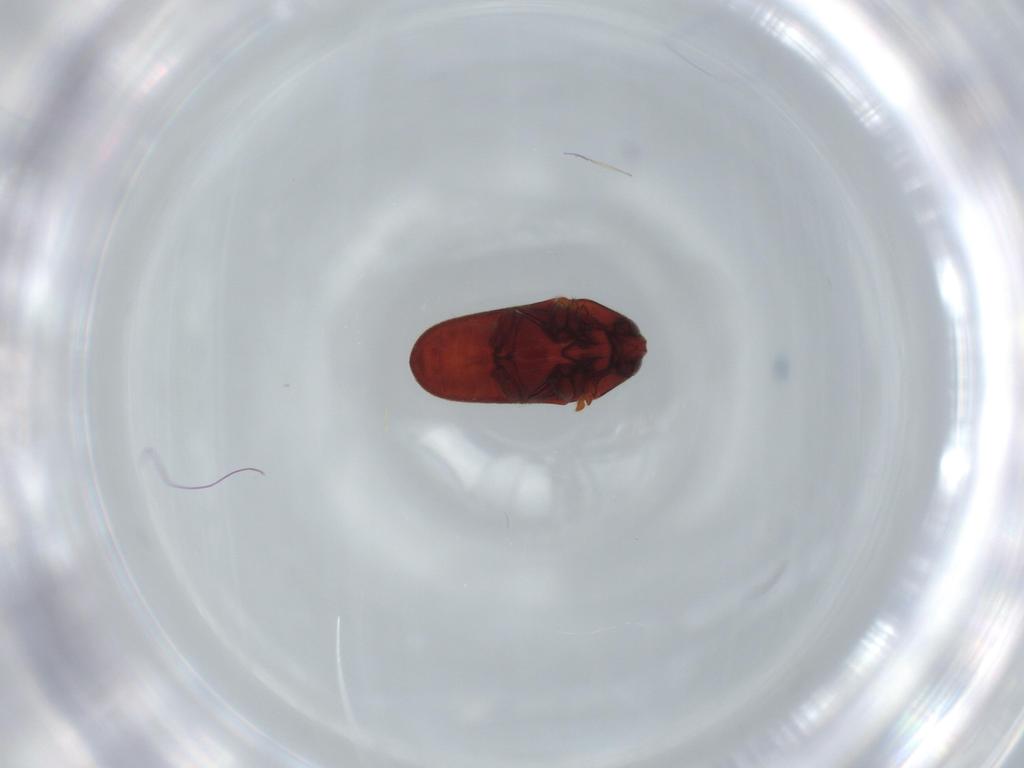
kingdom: Animalia
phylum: Arthropoda
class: Insecta
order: Coleoptera
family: Throscidae
